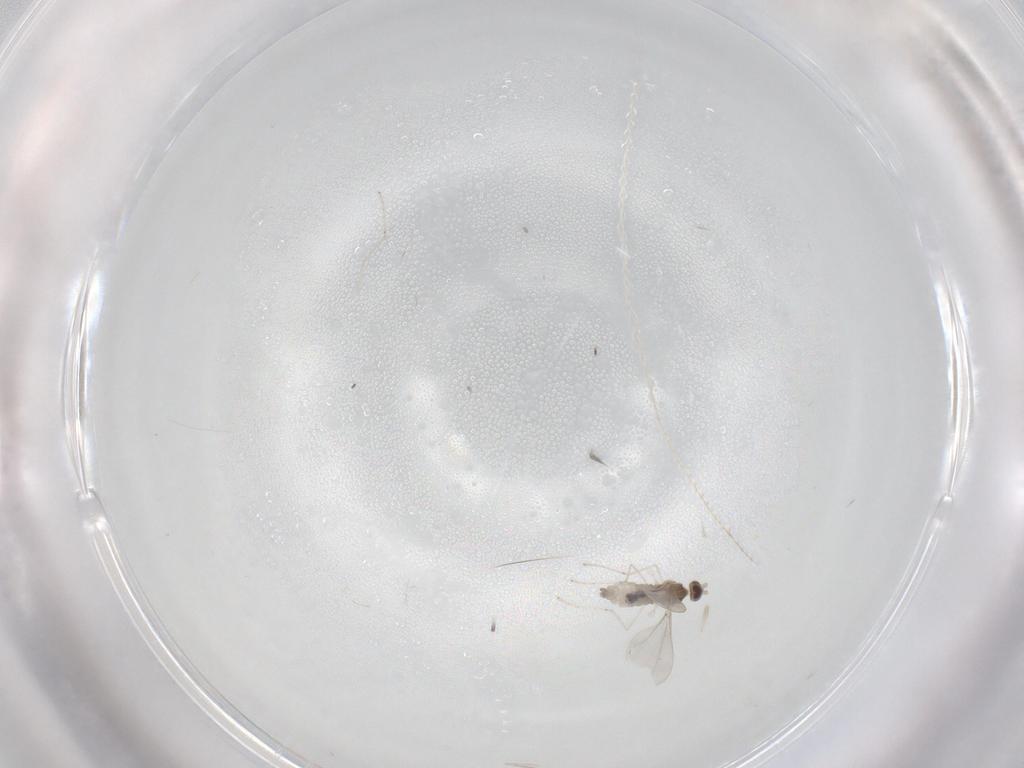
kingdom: Animalia
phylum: Arthropoda
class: Insecta
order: Diptera
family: Cecidomyiidae
